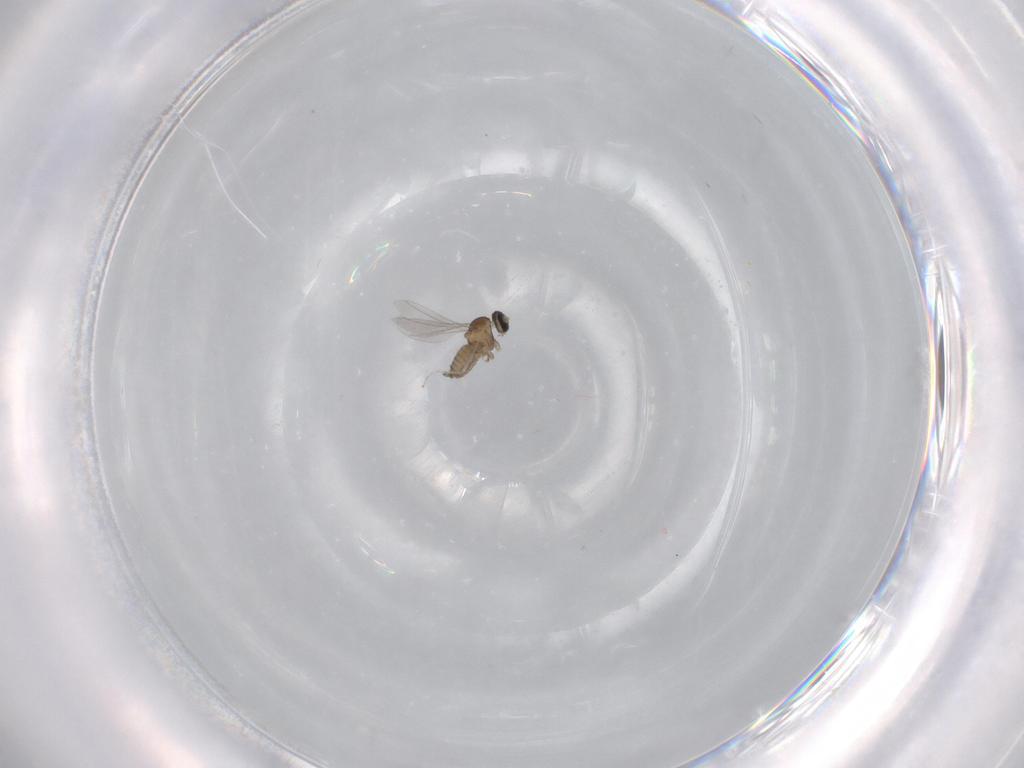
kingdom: Animalia
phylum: Arthropoda
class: Insecta
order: Diptera
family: Cecidomyiidae
